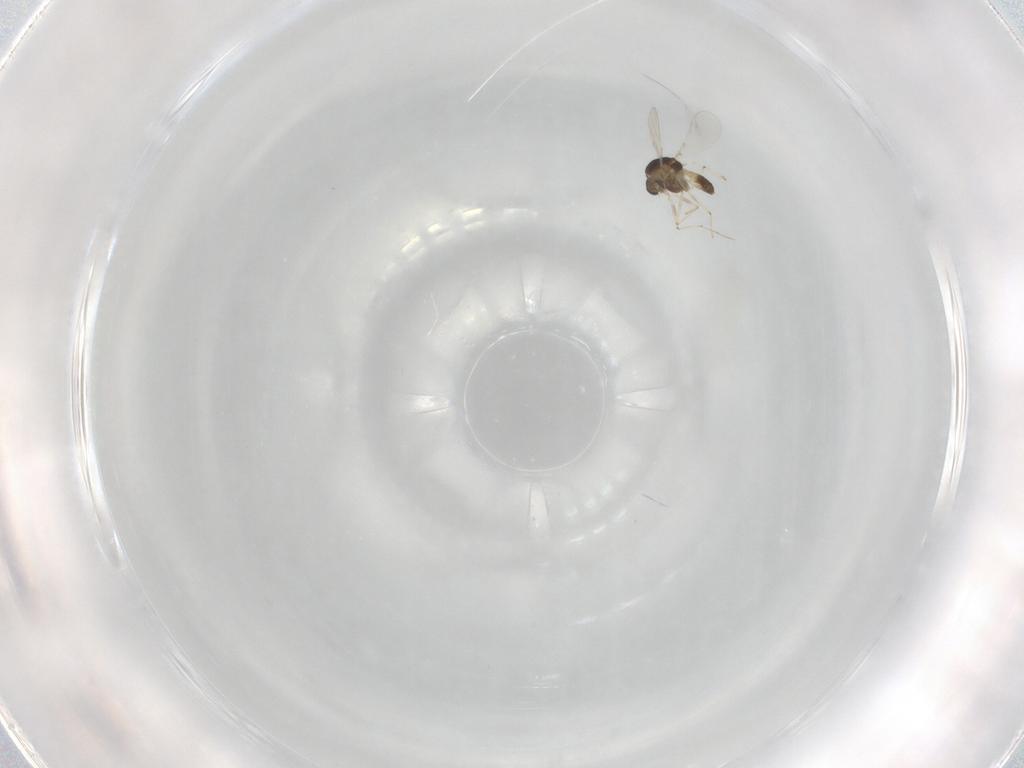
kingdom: Animalia
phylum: Arthropoda
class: Insecta
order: Diptera
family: Chironomidae
